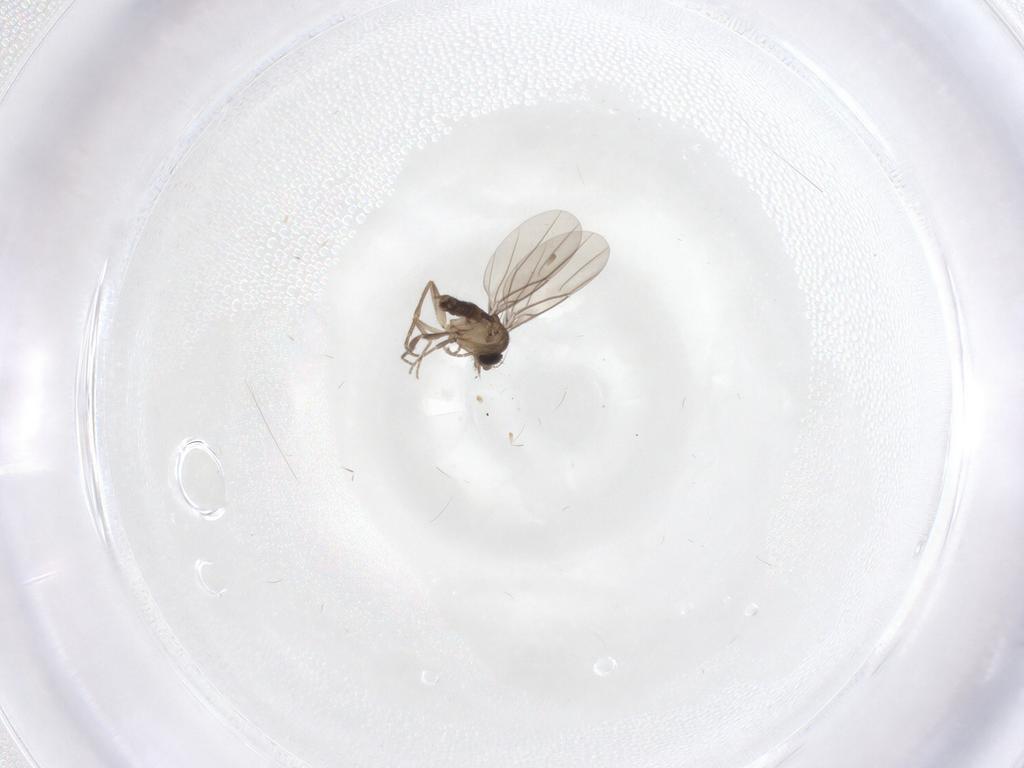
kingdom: Animalia
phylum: Arthropoda
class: Insecta
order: Diptera
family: Phoridae
